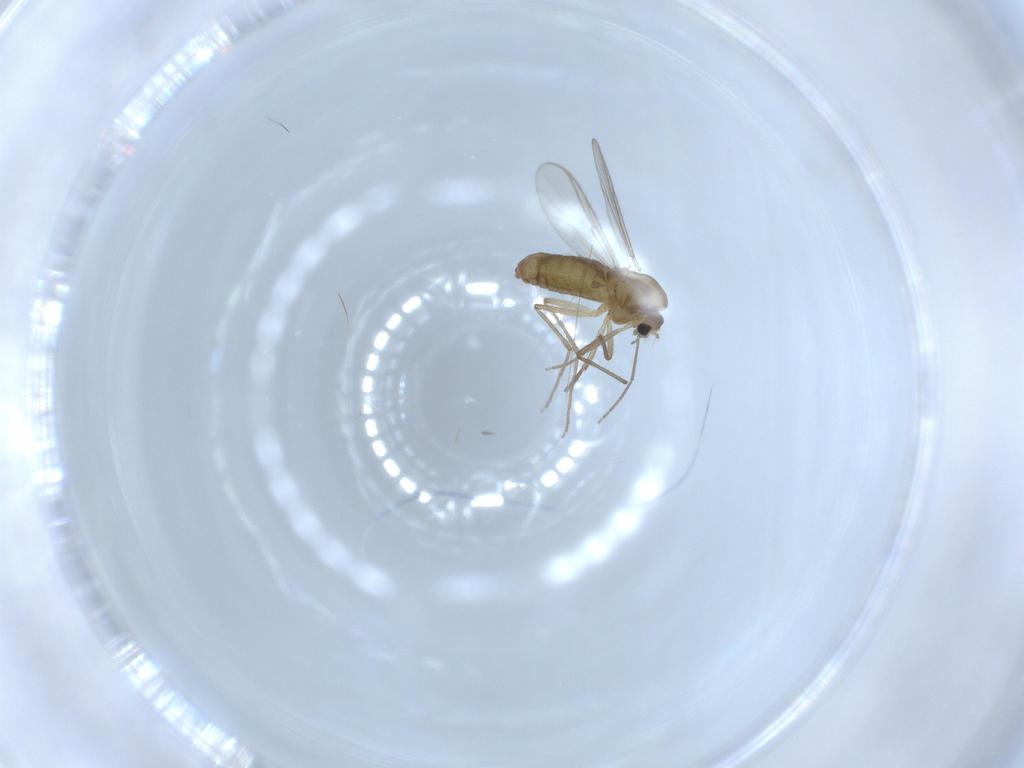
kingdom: Animalia
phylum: Arthropoda
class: Insecta
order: Diptera
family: Chironomidae
